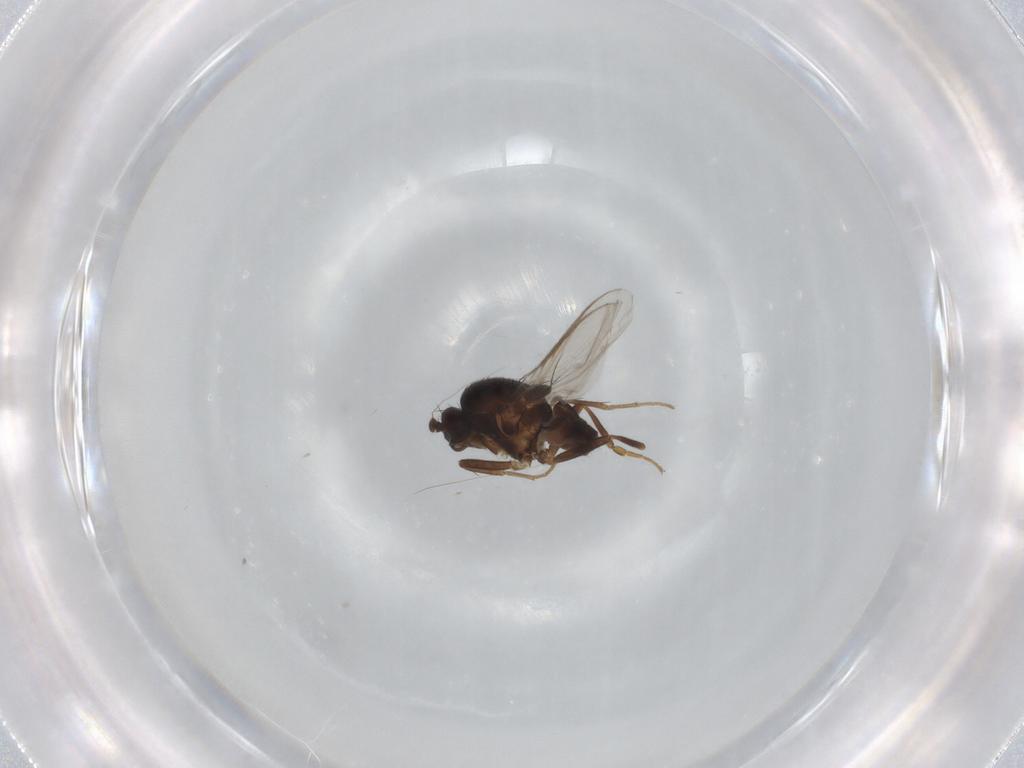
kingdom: Animalia
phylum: Arthropoda
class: Insecta
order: Diptera
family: Sphaeroceridae
